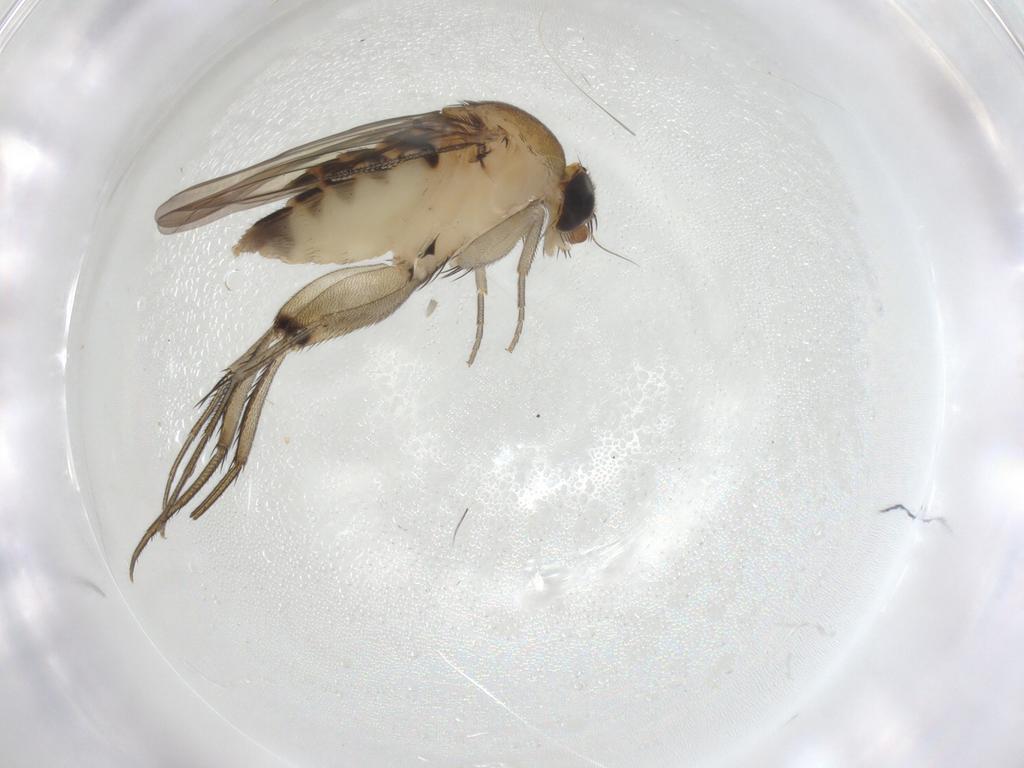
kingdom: Animalia
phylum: Arthropoda
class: Insecta
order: Diptera
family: Phoridae
